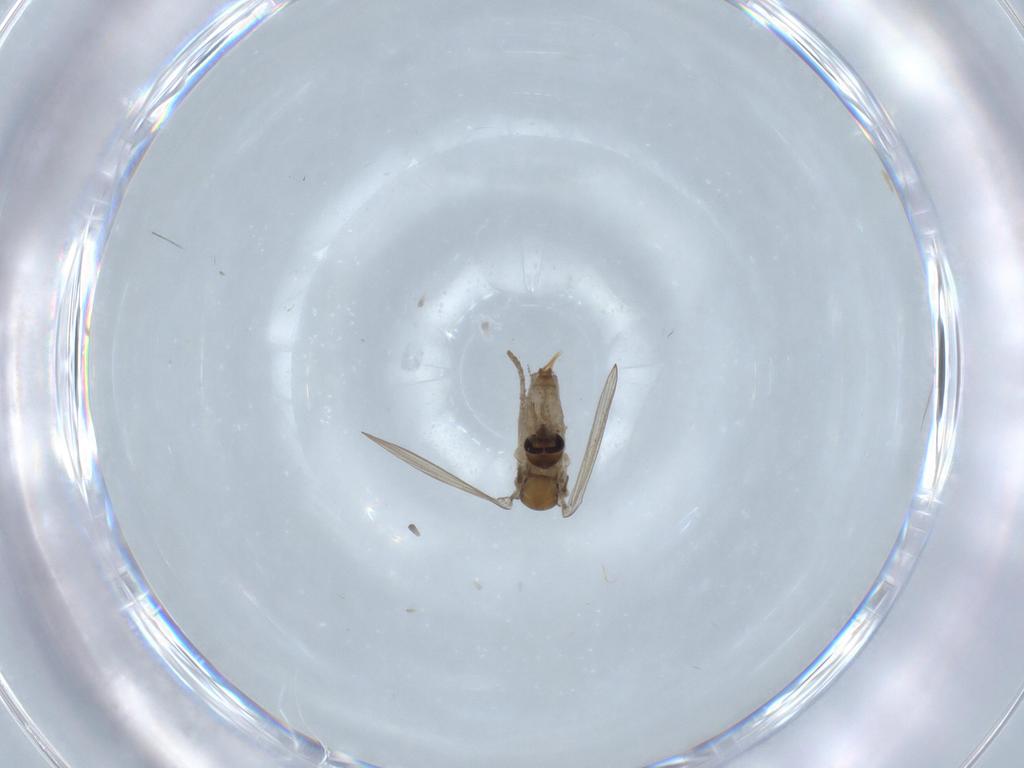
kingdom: Animalia
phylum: Arthropoda
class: Insecta
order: Diptera
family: Psychodidae
